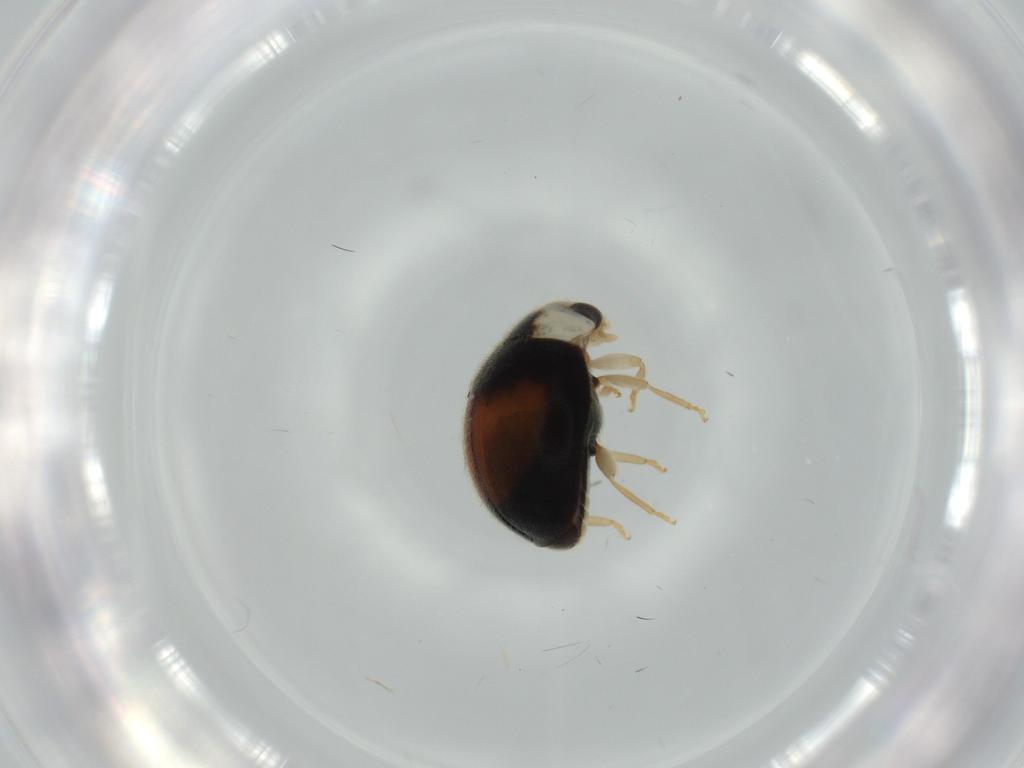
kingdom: Animalia
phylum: Arthropoda
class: Insecta
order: Coleoptera
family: Coccinellidae
